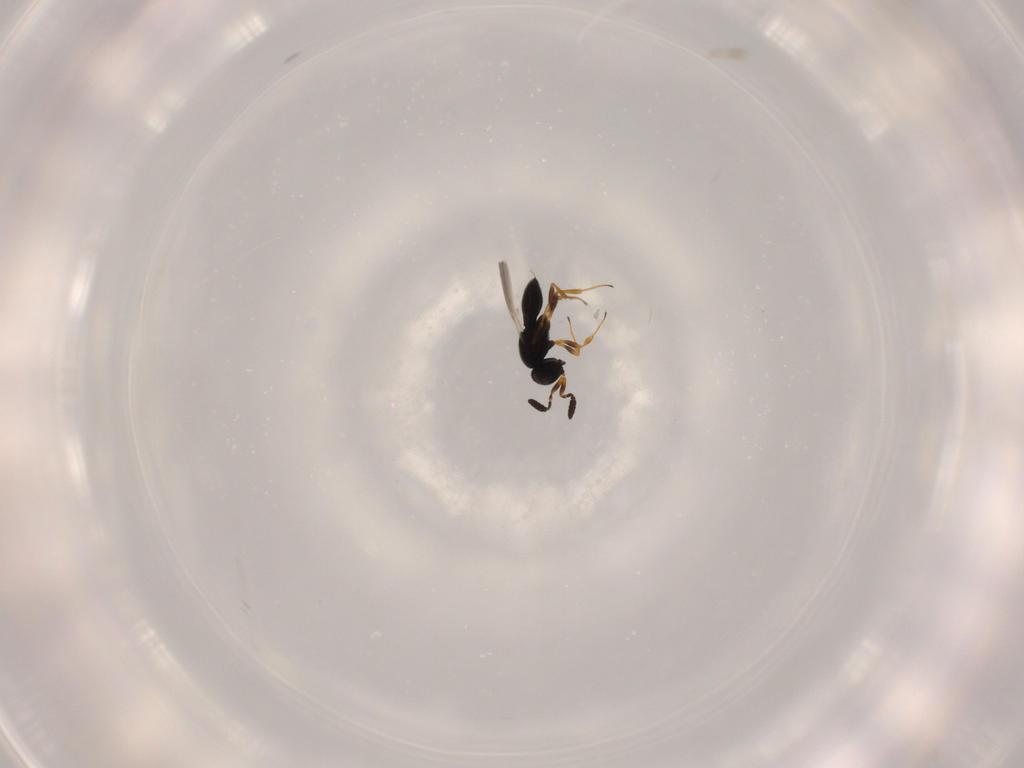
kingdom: Animalia
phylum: Arthropoda
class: Insecta
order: Hymenoptera
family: Scelionidae
